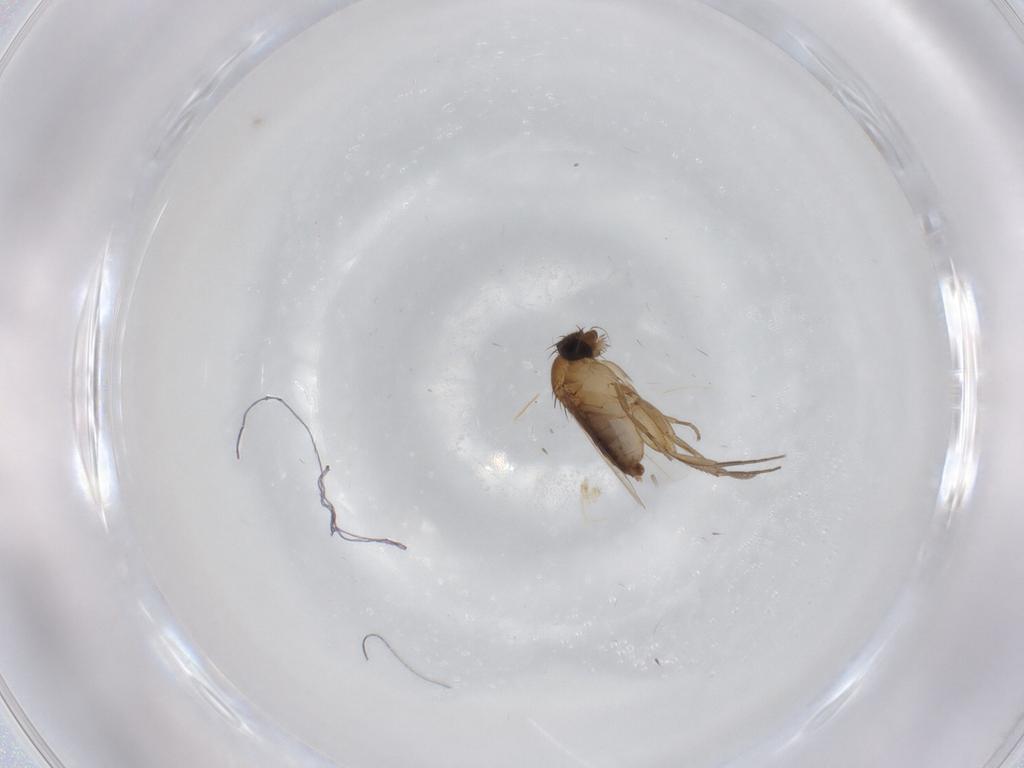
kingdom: Animalia
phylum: Arthropoda
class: Insecta
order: Diptera
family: Phoridae
